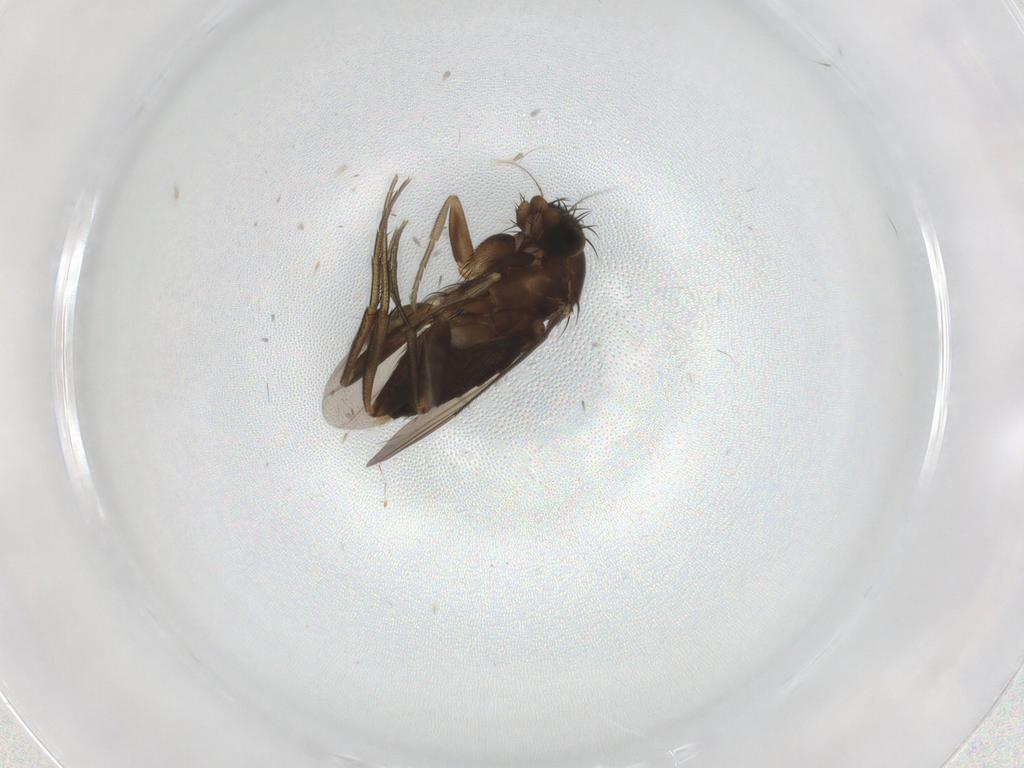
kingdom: Animalia
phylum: Arthropoda
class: Insecta
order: Diptera
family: Phoridae
